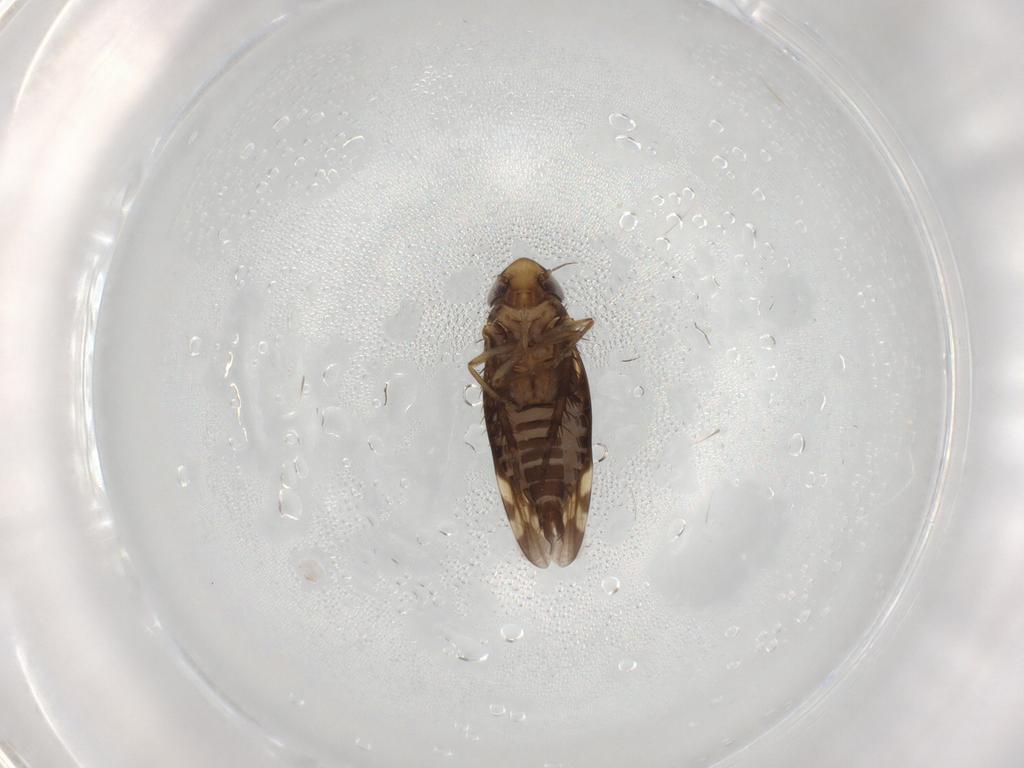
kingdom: Animalia
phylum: Arthropoda
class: Insecta
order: Hemiptera
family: Cicadellidae
